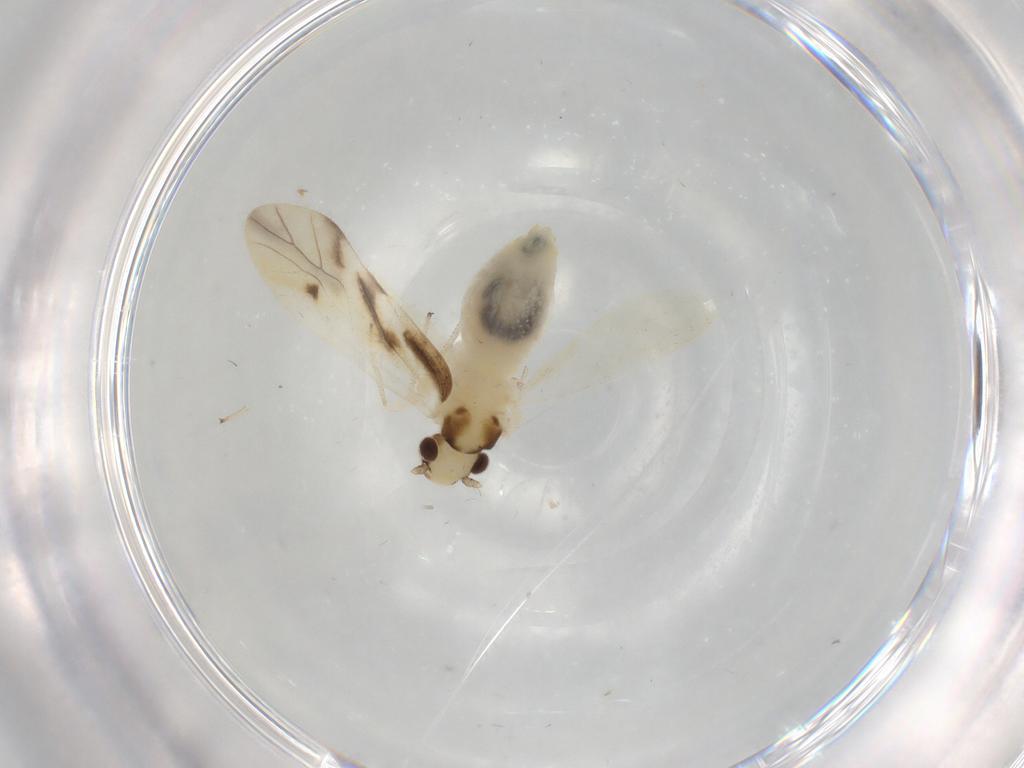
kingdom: Animalia
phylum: Arthropoda
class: Insecta
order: Psocodea
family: Caeciliusidae
